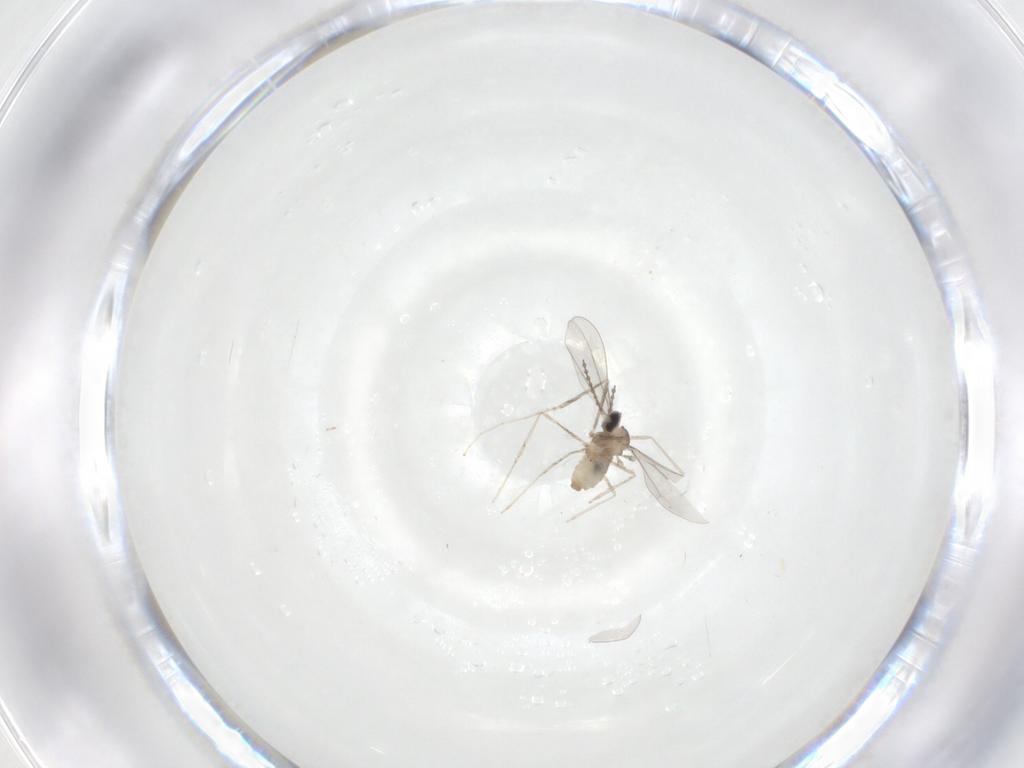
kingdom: Animalia
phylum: Arthropoda
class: Insecta
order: Diptera
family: Cecidomyiidae
